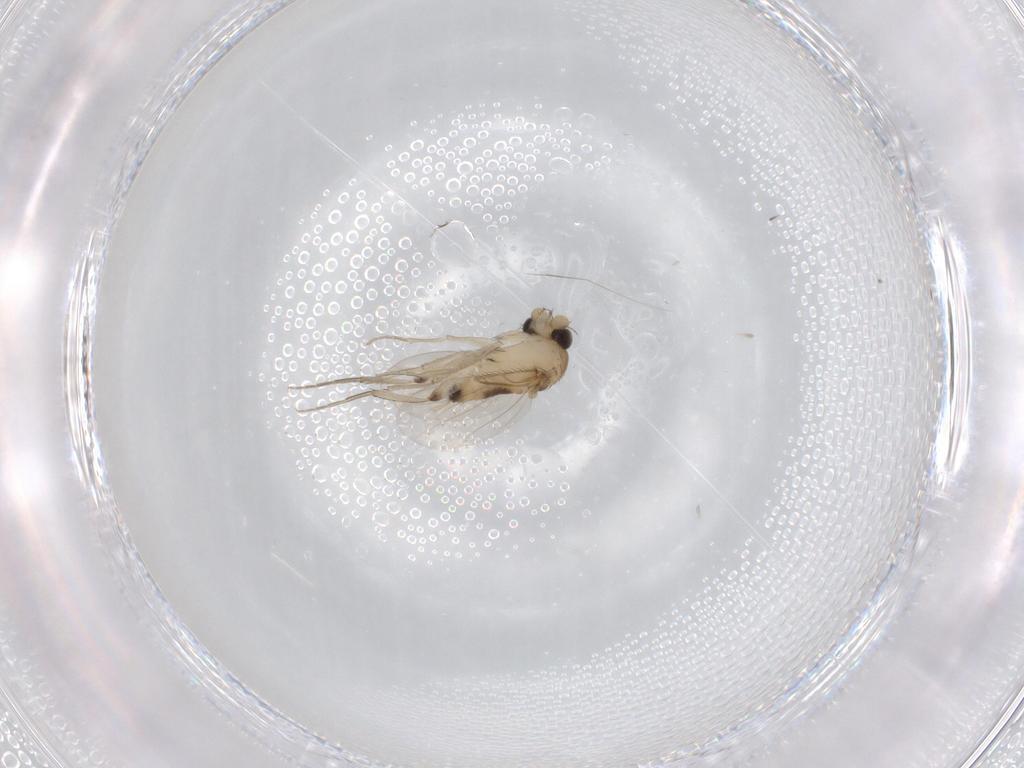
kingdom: Animalia
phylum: Arthropoda
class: Insecta
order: Diptera
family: Phoridae
